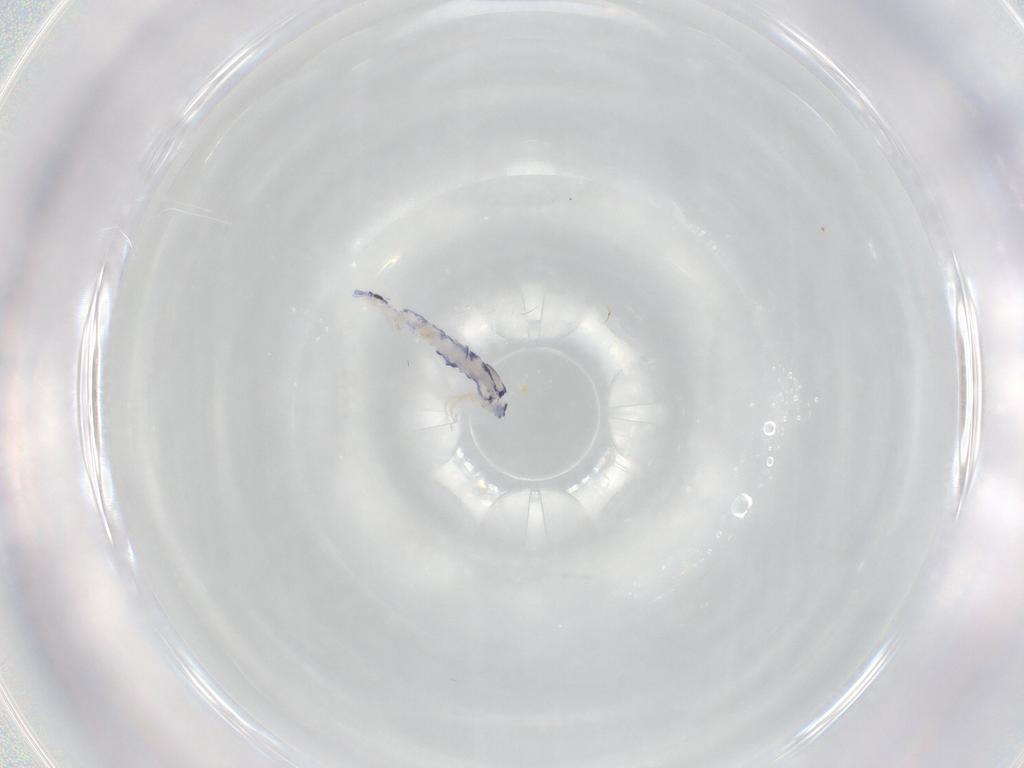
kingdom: Animalia
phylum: Arthropoda
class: Collembola
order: Entomobryomorpha
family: Entomobryidae
